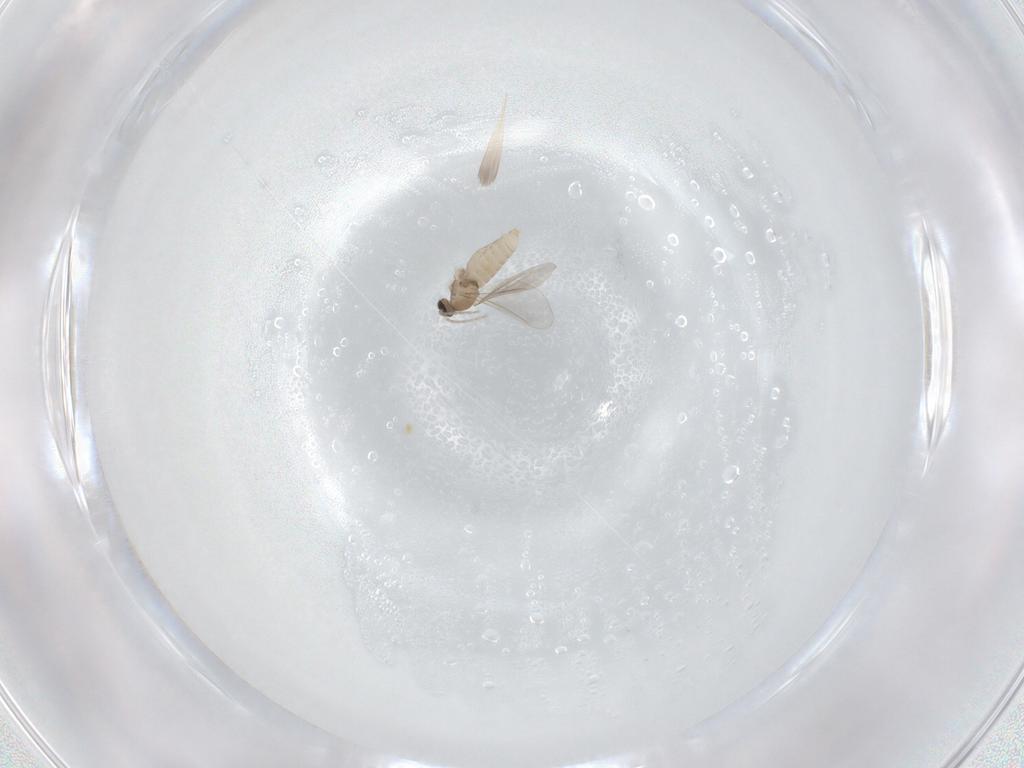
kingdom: Animalia
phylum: Arthropoda
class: Insecta
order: Diptera
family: Cecidomyiidae
